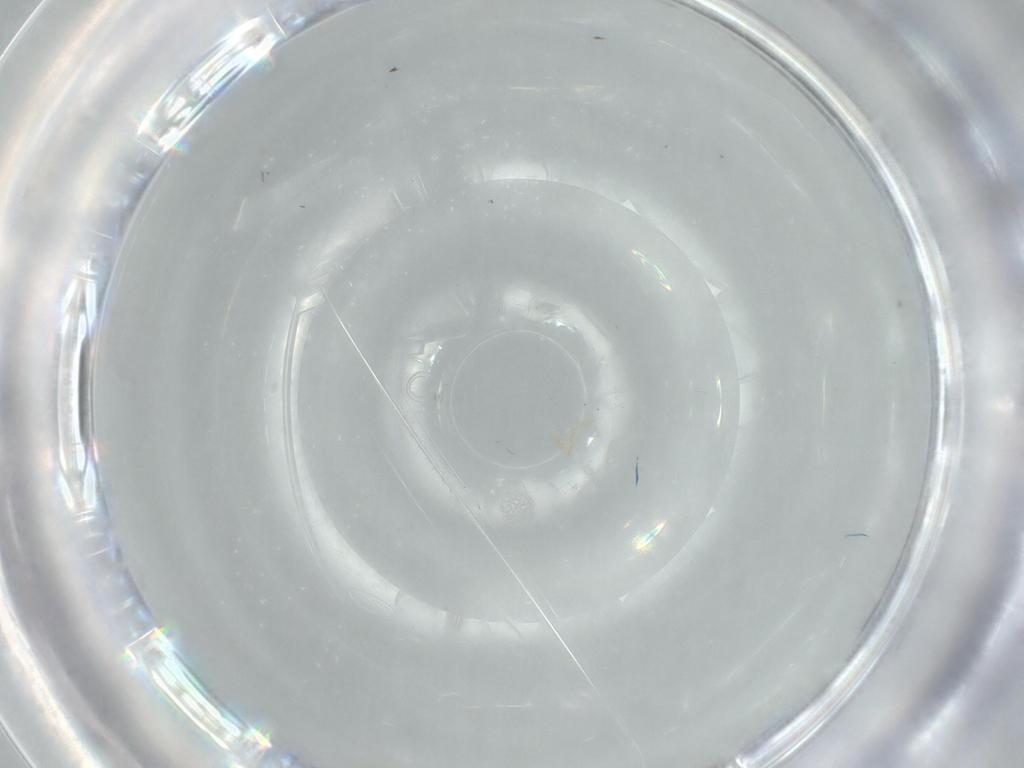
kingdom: Animalia
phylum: Arthropoda
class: Insecta
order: Hemiptera
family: Aleyrodidae
